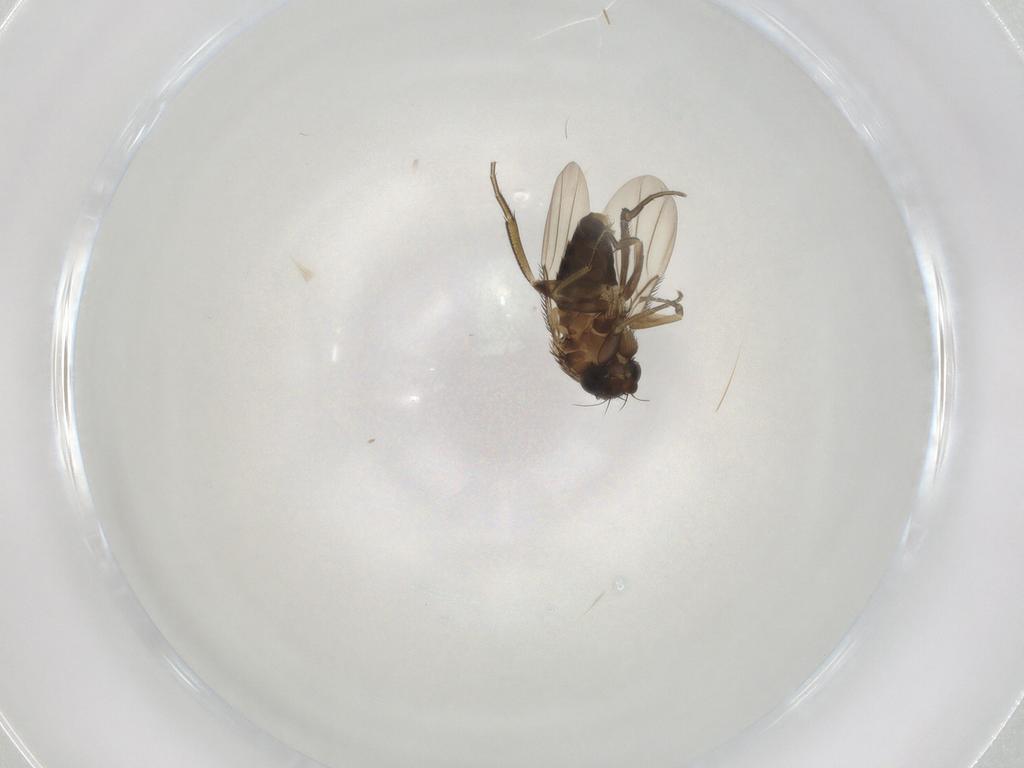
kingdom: Animalia
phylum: Arthropoda
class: Insecta
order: Diptera
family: Phoridae
